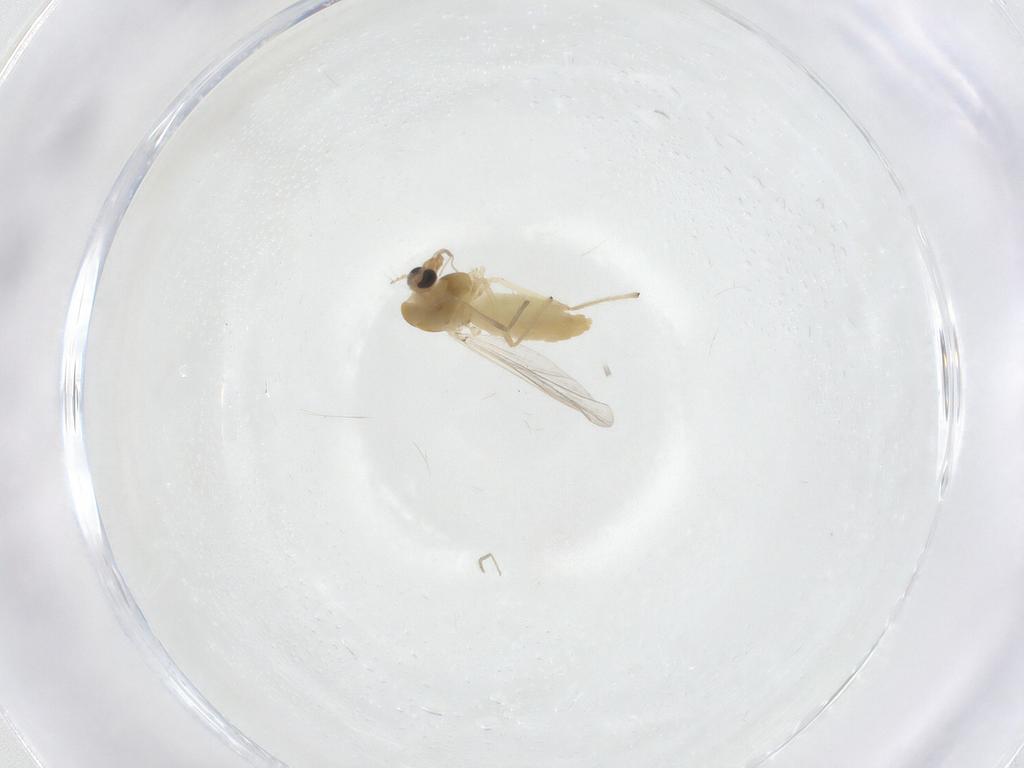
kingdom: Animalia
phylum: Arthropoda
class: Insecta
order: Diptera
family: Chironomidae
